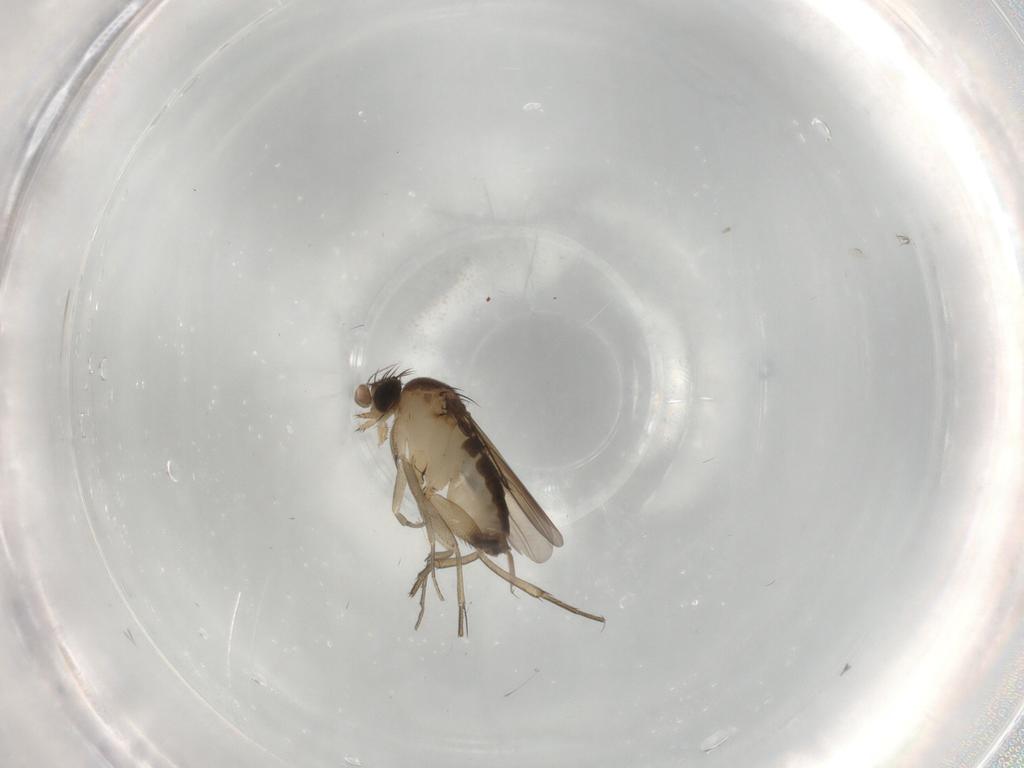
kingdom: Animalia
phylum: Arthropoda
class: Insecta
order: Diptera
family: Phoridae
